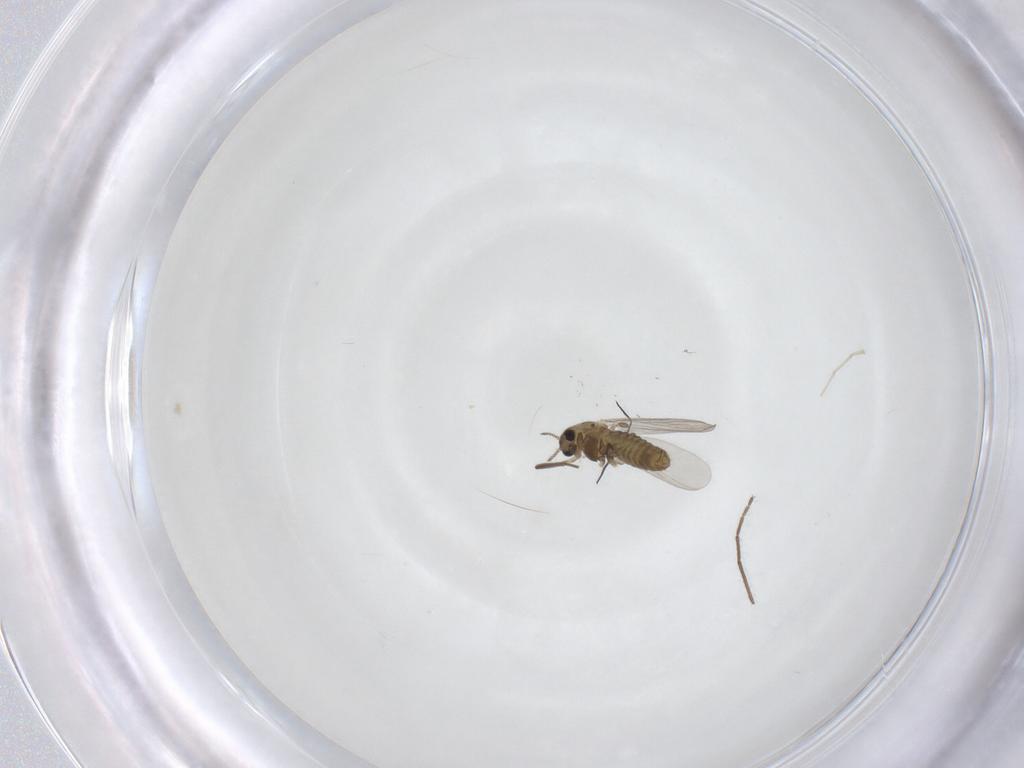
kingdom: Animalia
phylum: Arthropoda
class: Insecta
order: Diptera
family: Chironomidae
